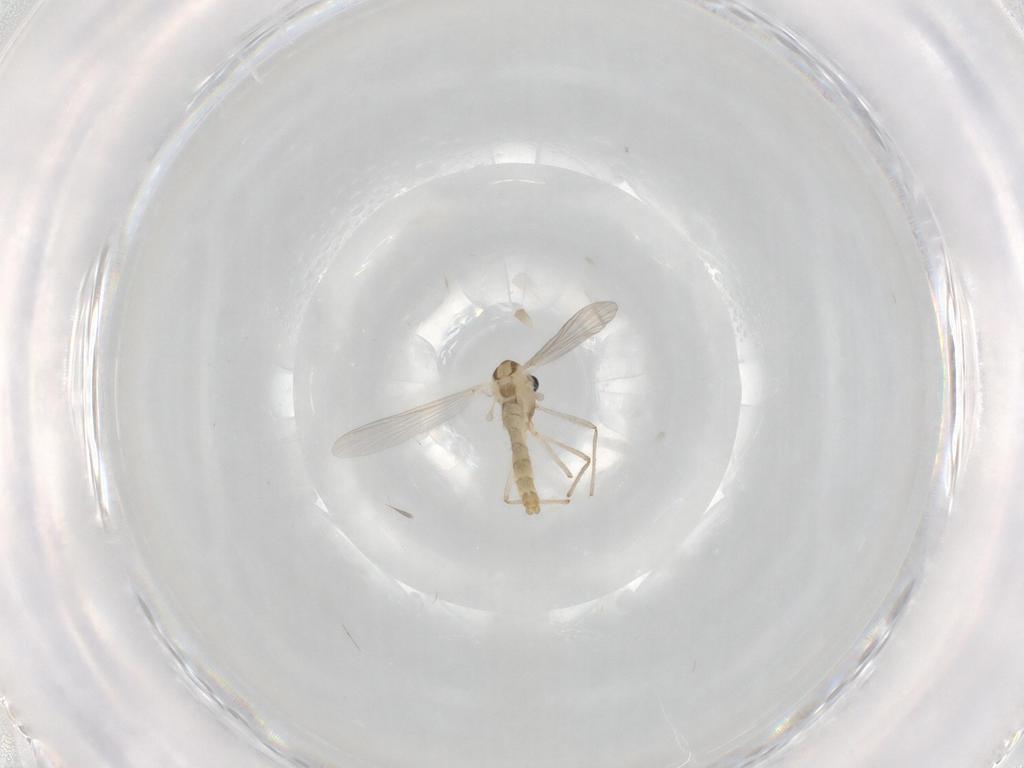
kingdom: Animalia
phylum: Arthropoda
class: Insecta
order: Diptera
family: Chironomidae
